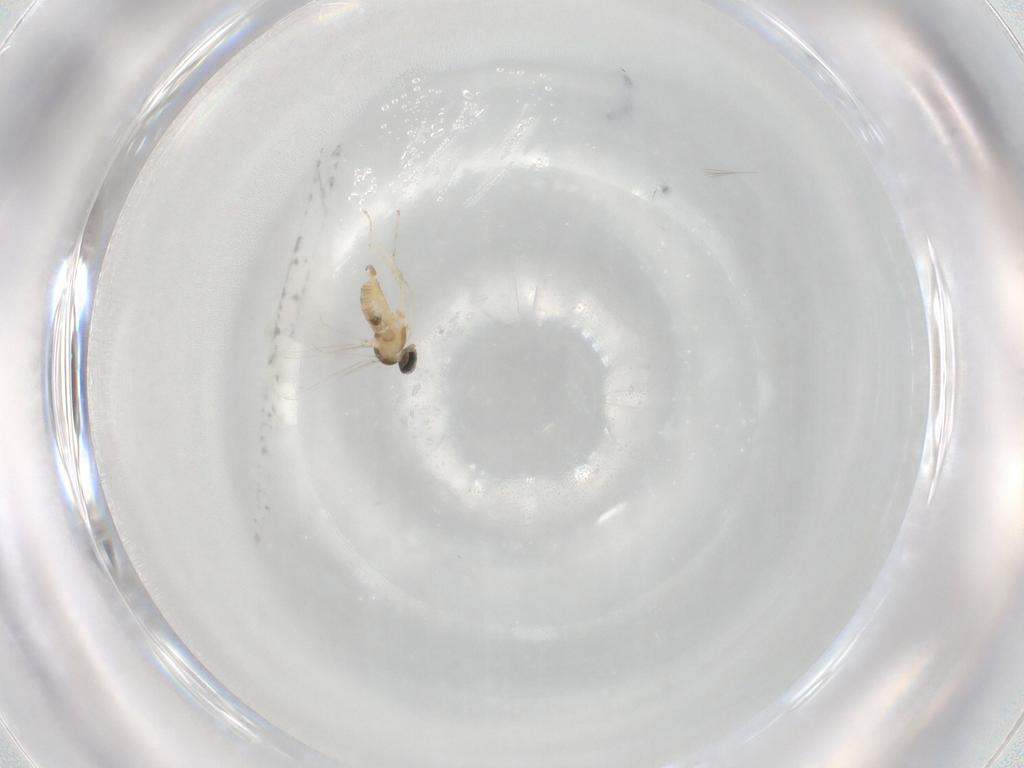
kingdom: Animalia
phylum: Arthropoda
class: Insecta
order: Diptera
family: Cecidomyiidae
